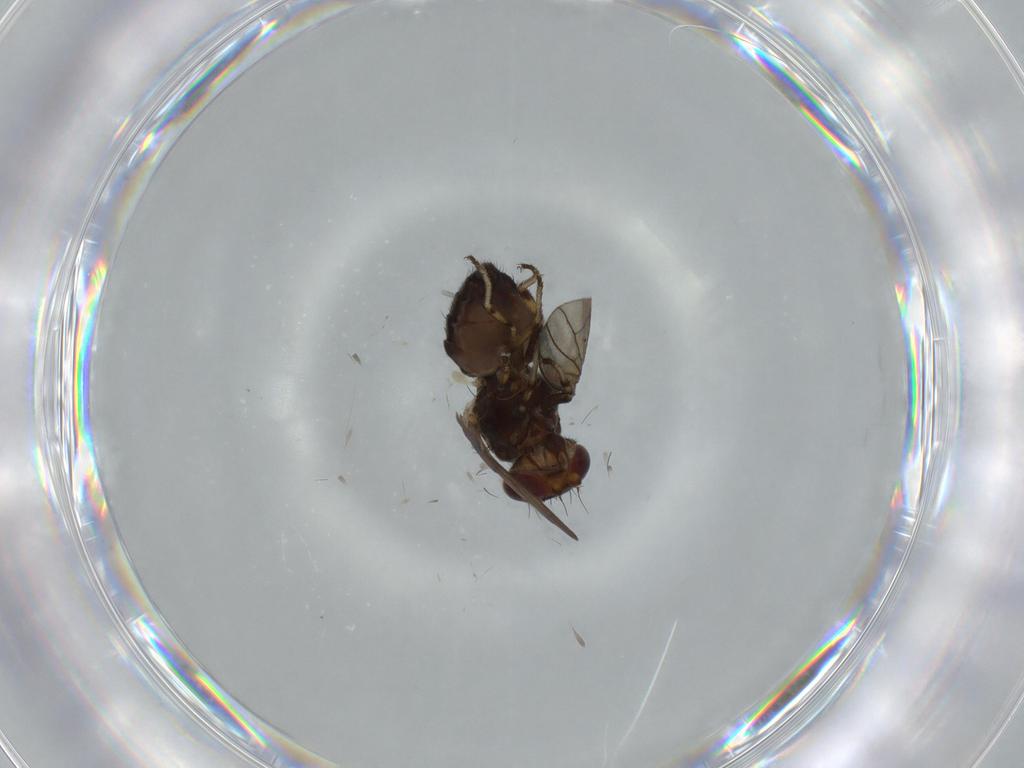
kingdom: Animalia
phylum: Arthropoda
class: Insecta
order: Diptera
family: Heleomyzidae
